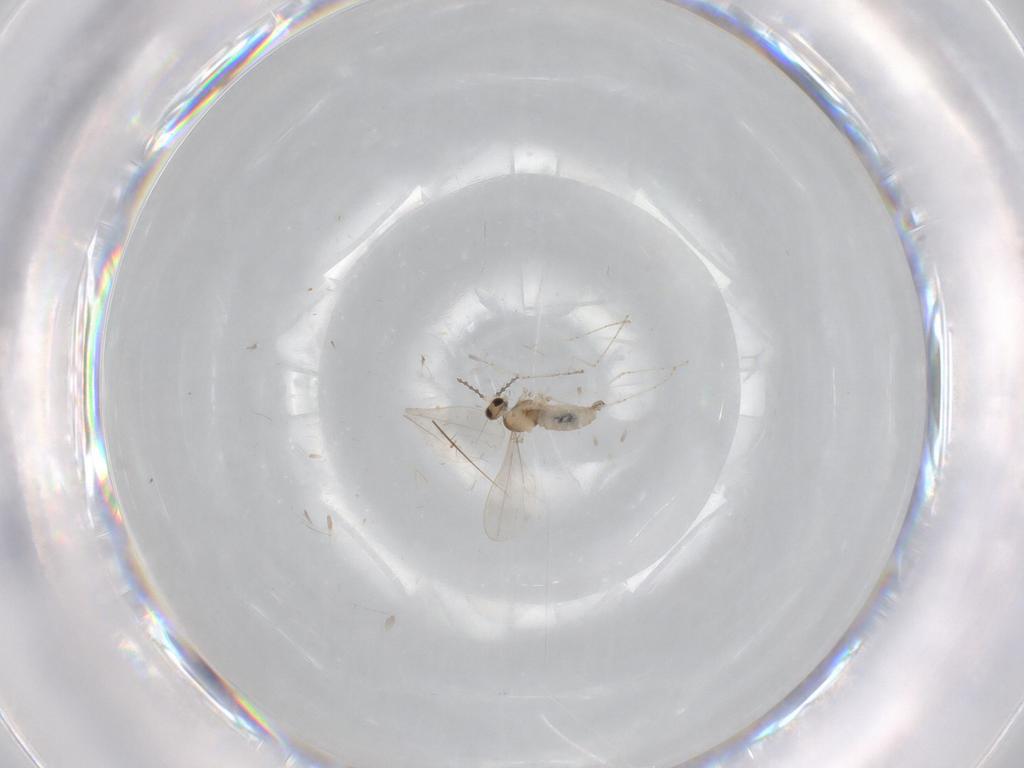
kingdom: Animalia
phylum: Arthropoda
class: Insecta
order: Diptera
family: Cecidomyiidae
